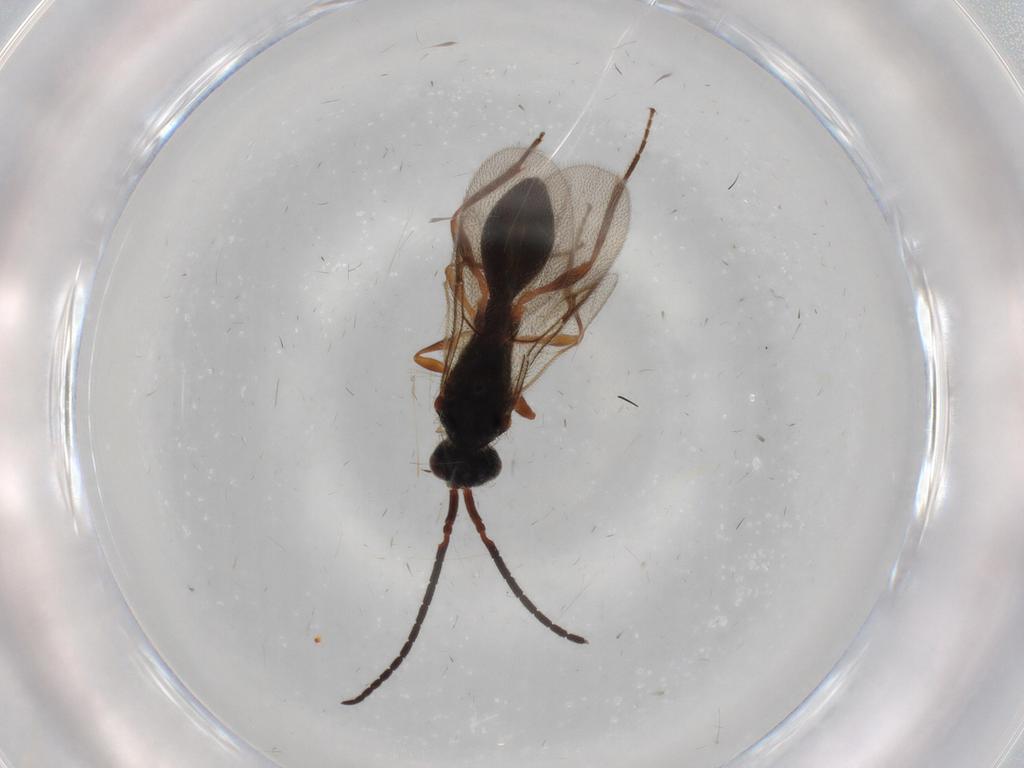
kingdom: Animalia
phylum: Arthropoda
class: Insecta
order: Hymenoptera
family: Diapriidae
